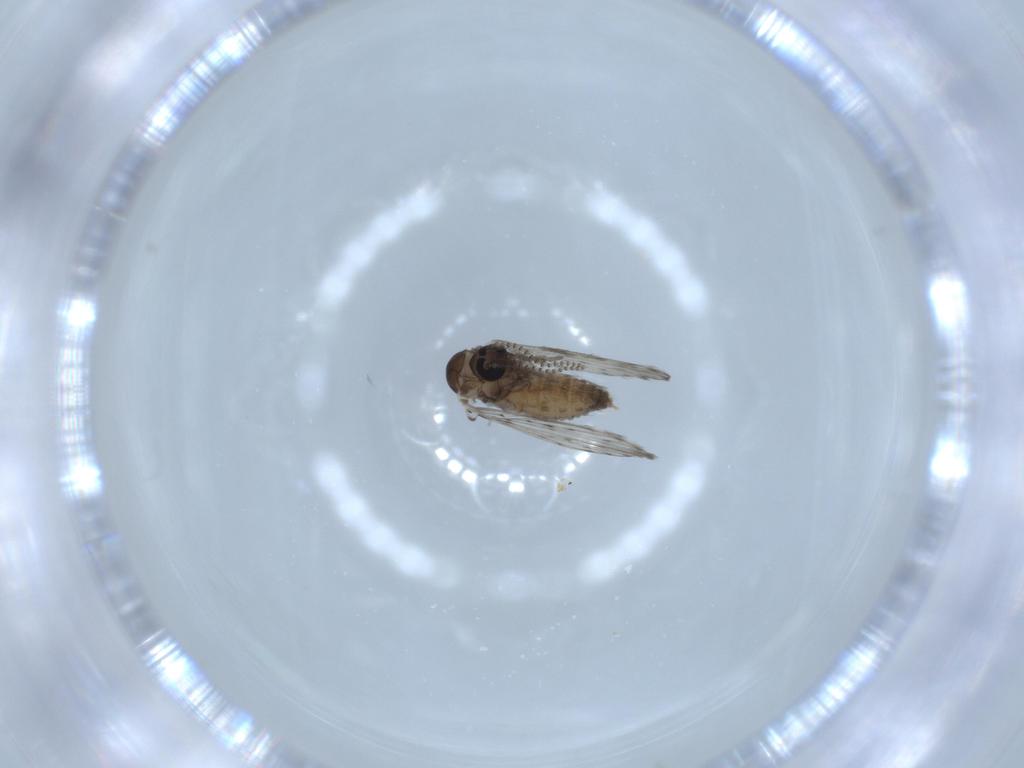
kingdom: Animalia
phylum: Arthropoda
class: Insecta
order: Diptera
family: Psychodidae
